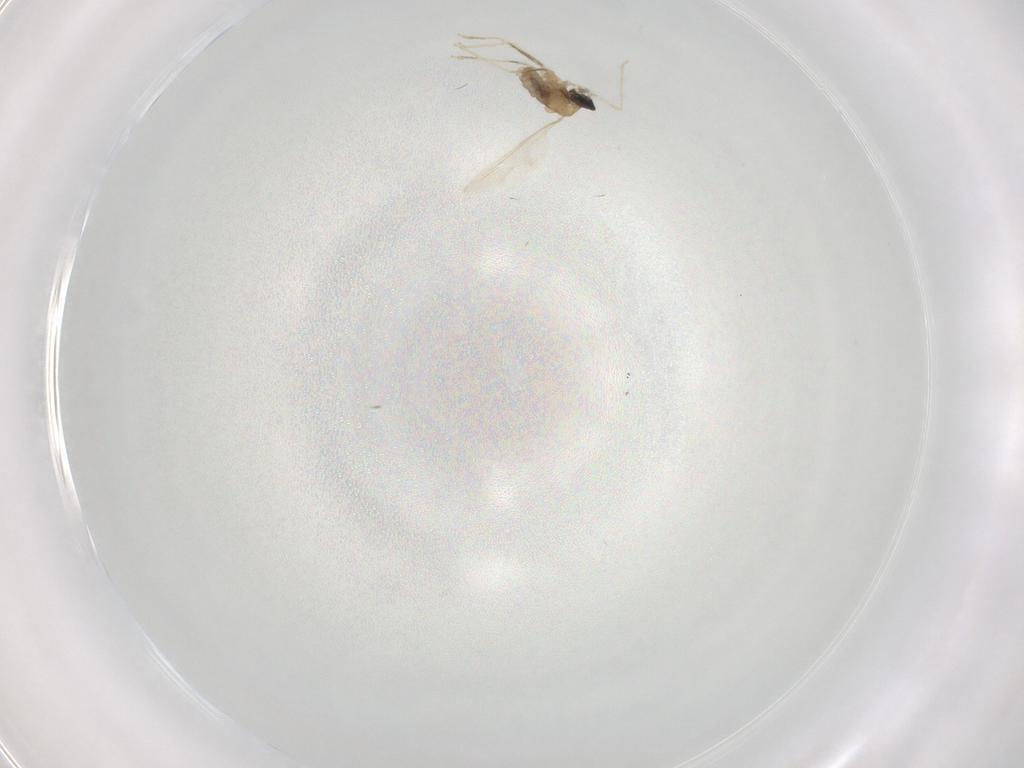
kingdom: Animalia
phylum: Arthropoda
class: Insecta
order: Diptera
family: Cecidomyiidae
